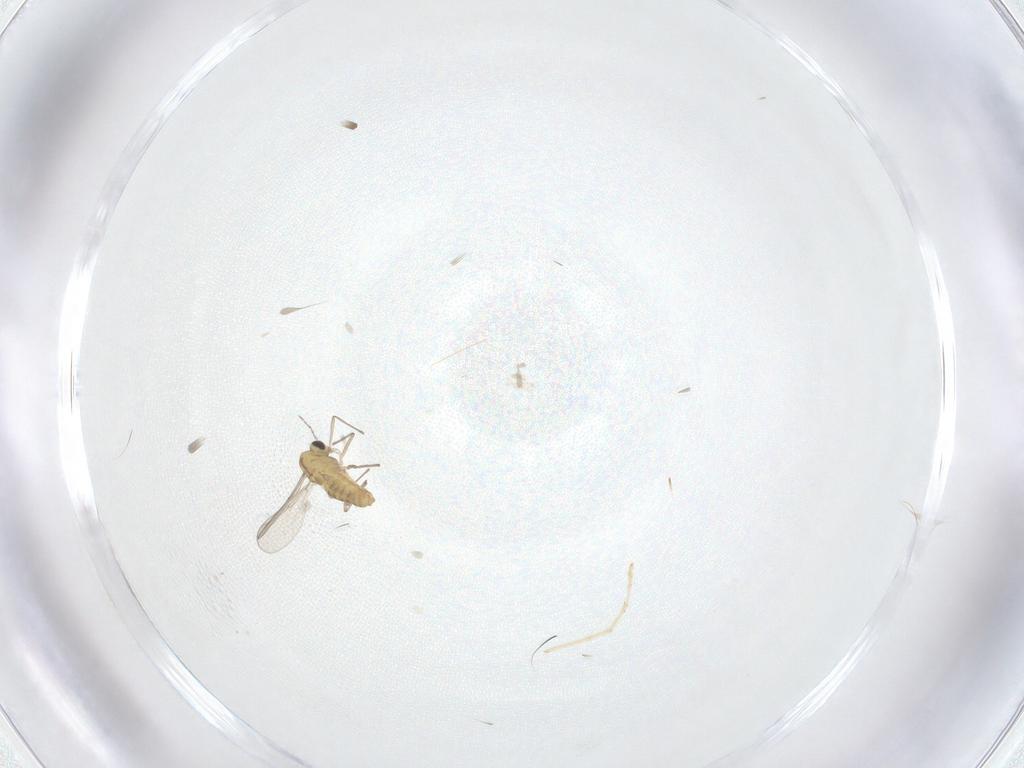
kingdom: Animalia
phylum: Arthropoda
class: Insecta
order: Diptera
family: Cecidomyiidae
